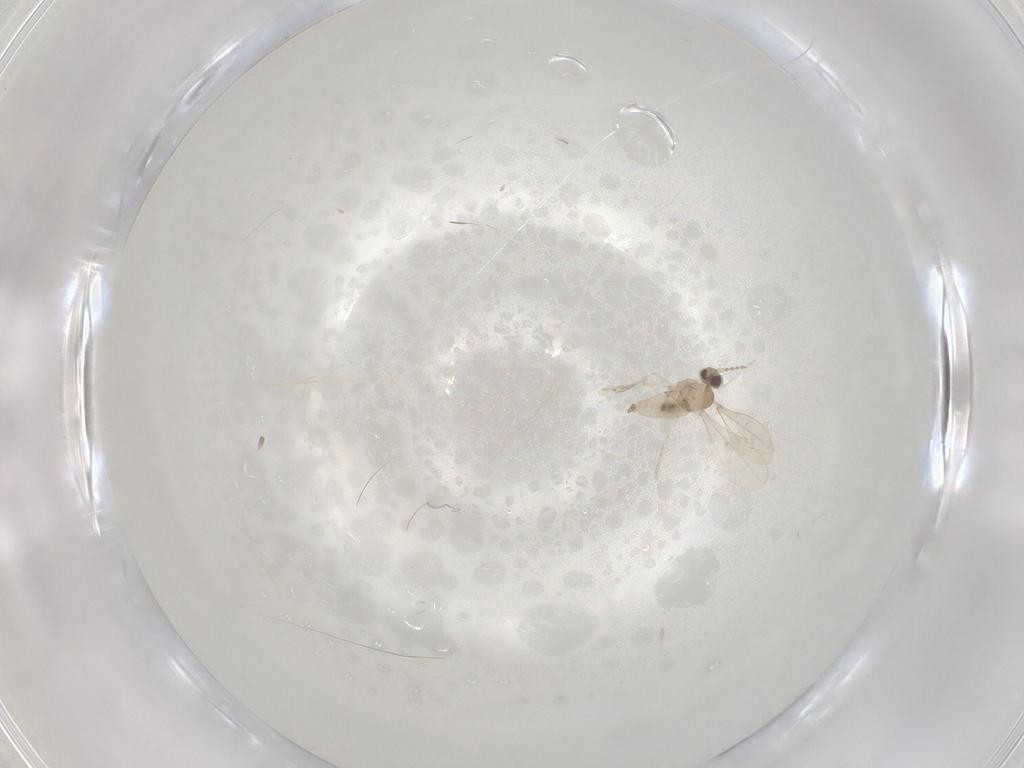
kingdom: Animalia
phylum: Arthropoda
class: Insecta
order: Diptera
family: Cecidomyiidae
